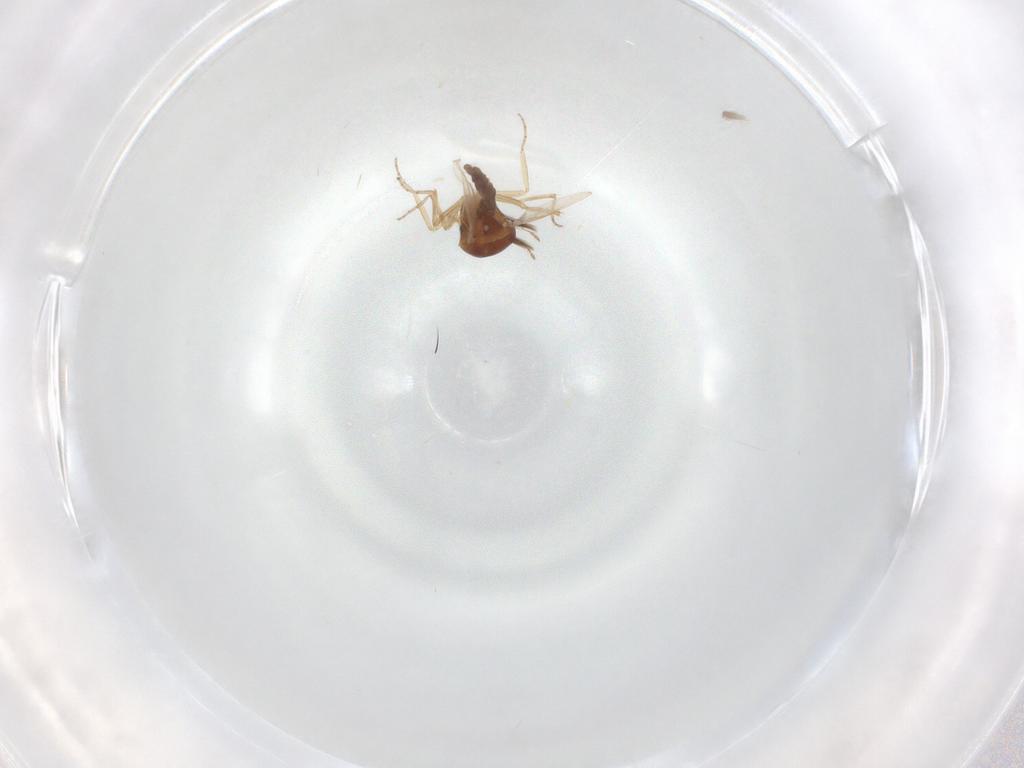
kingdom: Animalia
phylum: Arthropoda
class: Insecta
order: Diptera
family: Ceratopogonidae
